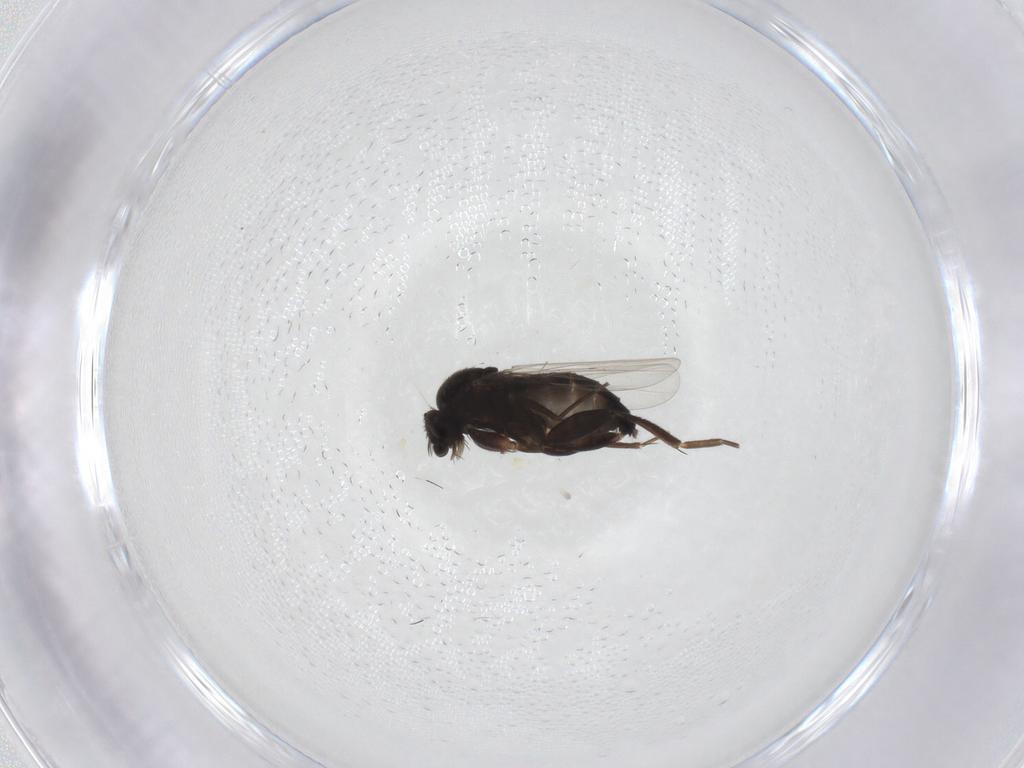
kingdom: Animalia
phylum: Arthropoda
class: Insecta
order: Diptera
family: Phoridae
